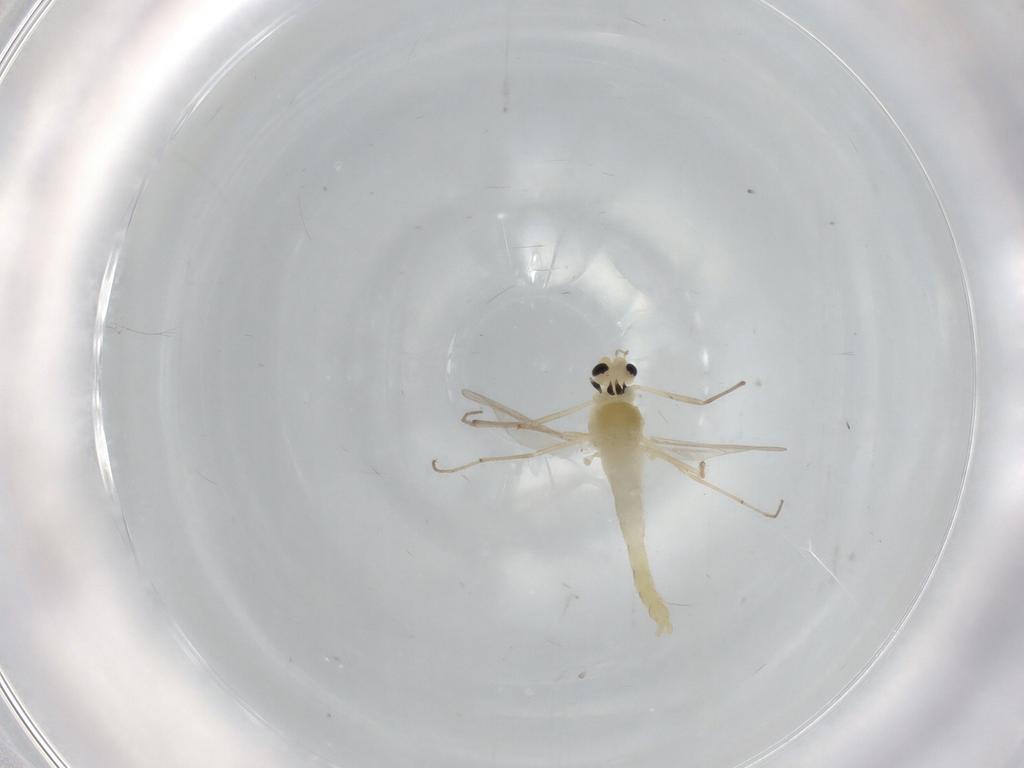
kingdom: Animalia
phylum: Arthropoda
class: Insecta
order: Diptera
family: Chironomidae
